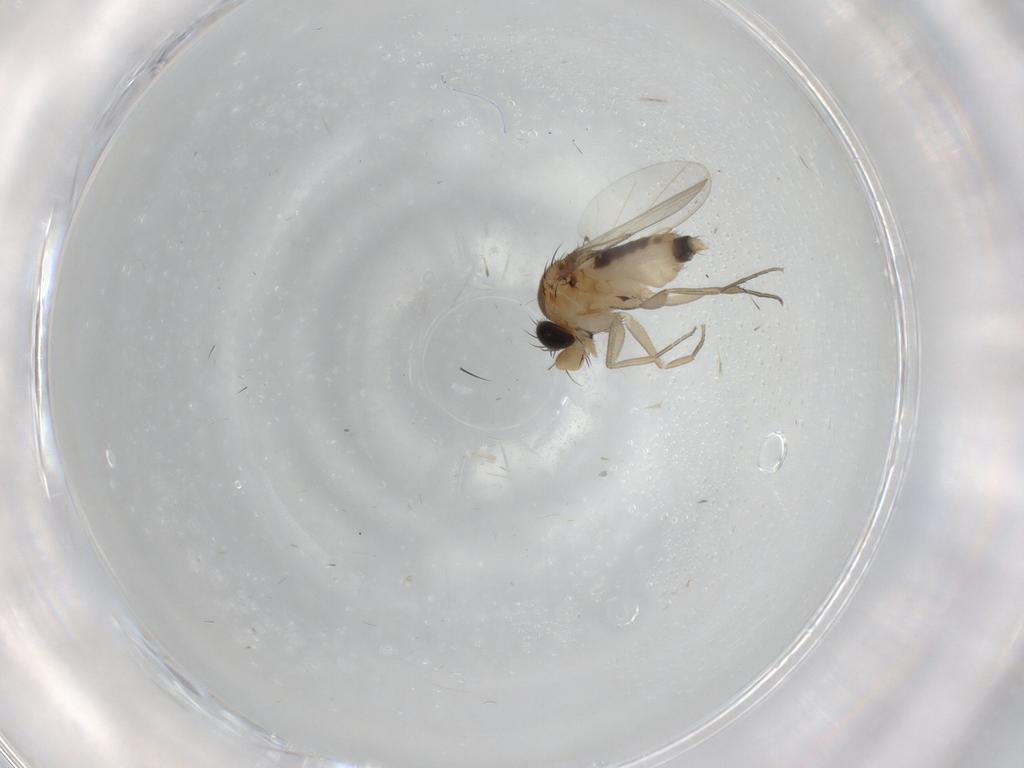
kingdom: Animalia
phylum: Arthropoda
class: Insecta
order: Diptera
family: Phoridae
